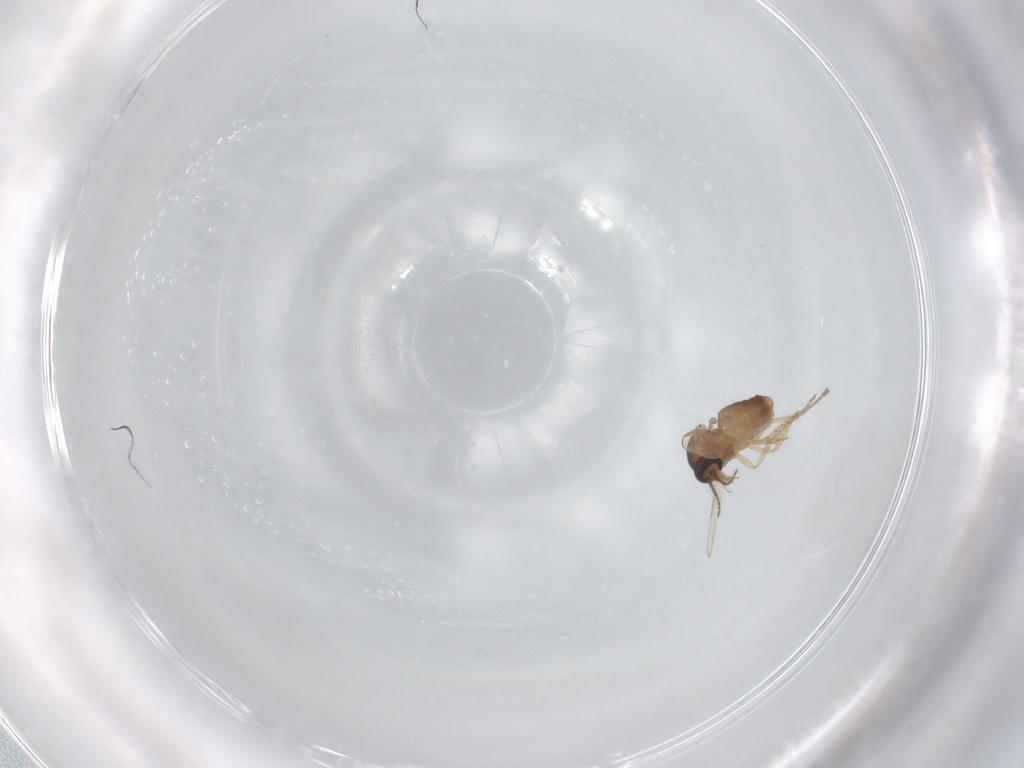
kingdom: Animalia
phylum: Arthropoda
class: Insecta
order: Diptera
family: Ceratopogonidae
